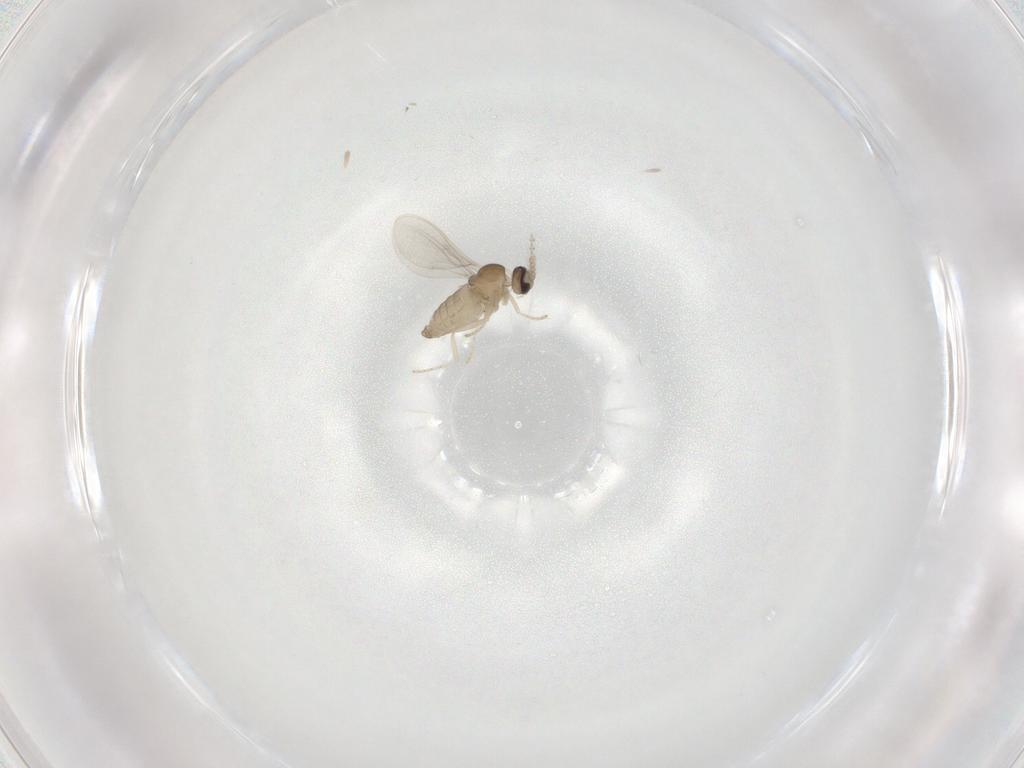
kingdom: Animalia
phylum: Arthropoda
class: Insecta
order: Diptera
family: Cecidomyiidae
